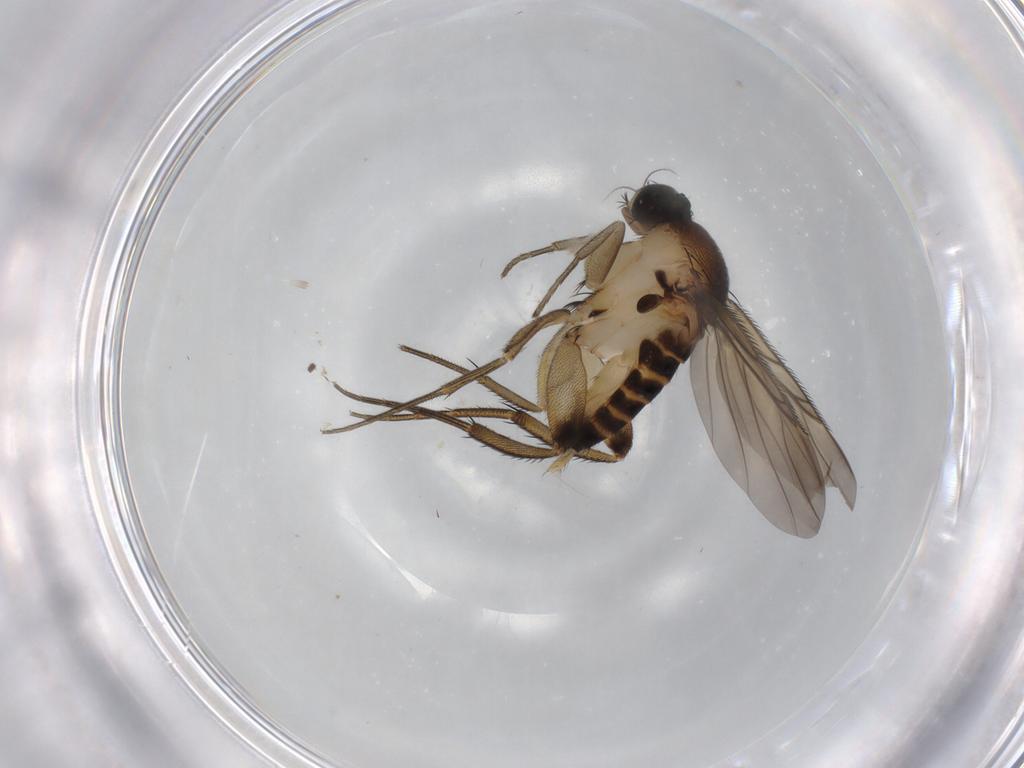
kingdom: Animalia
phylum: Arthropoda
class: Insecta
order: Diptera
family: Phoridae
